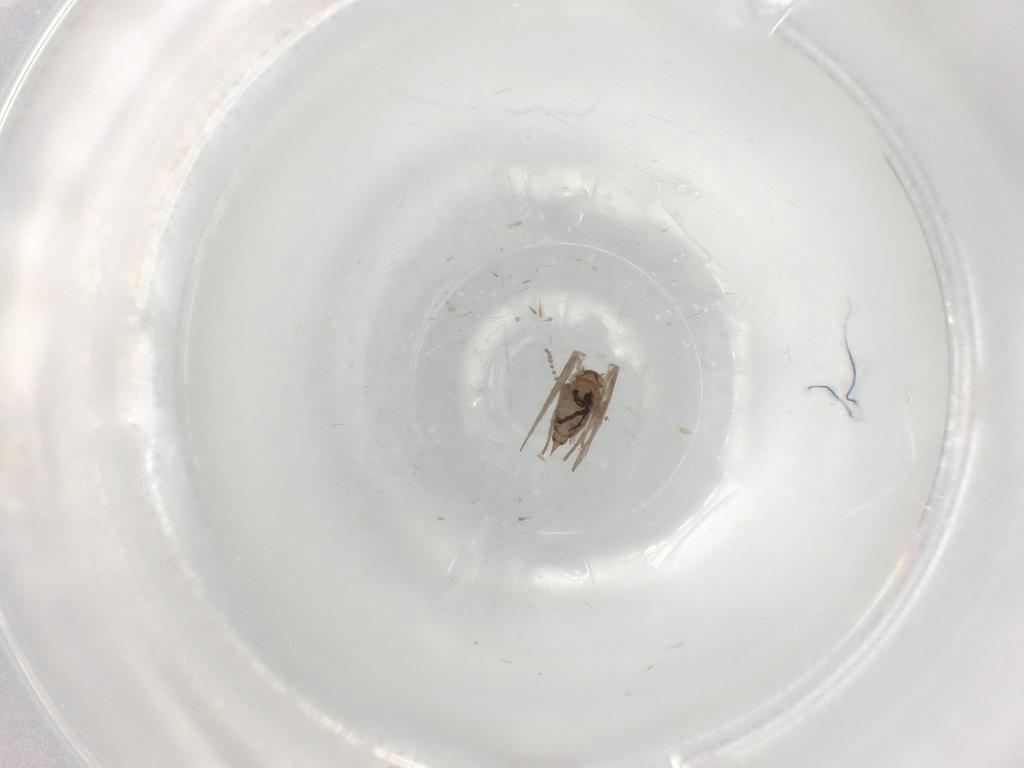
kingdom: Animalia
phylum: Arthropoda
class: Insecta
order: Diptera
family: Psychodidae
